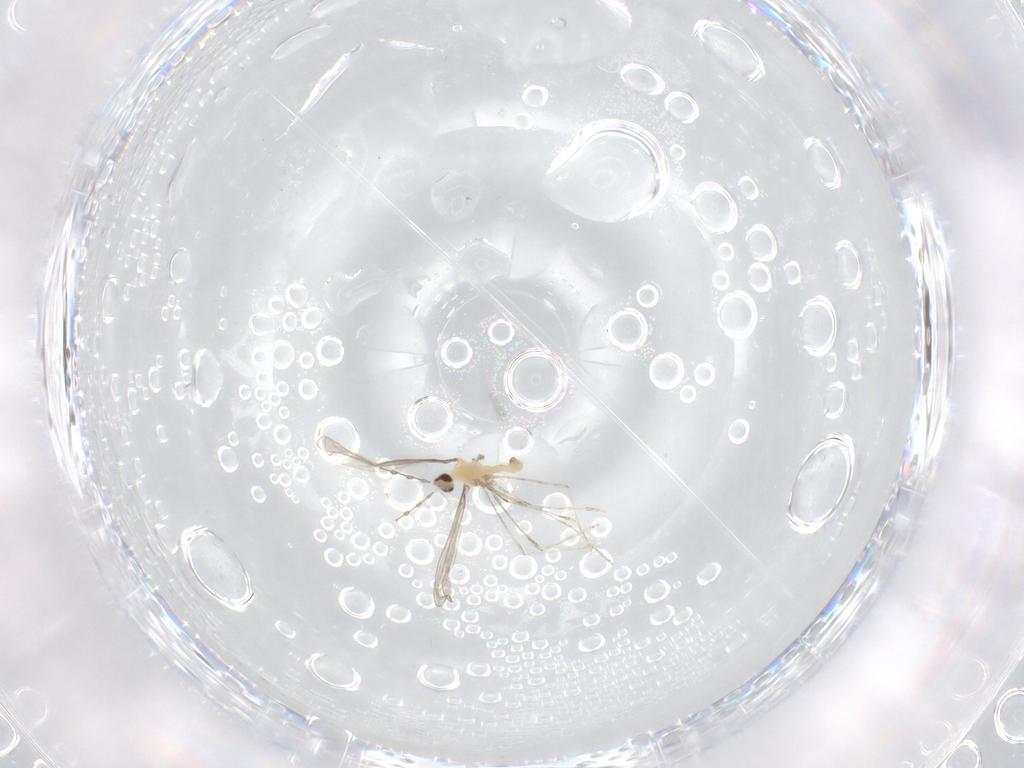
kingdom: Animalia
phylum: Arthropoda
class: Insecta
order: Diptera
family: Cecidomyiidae
